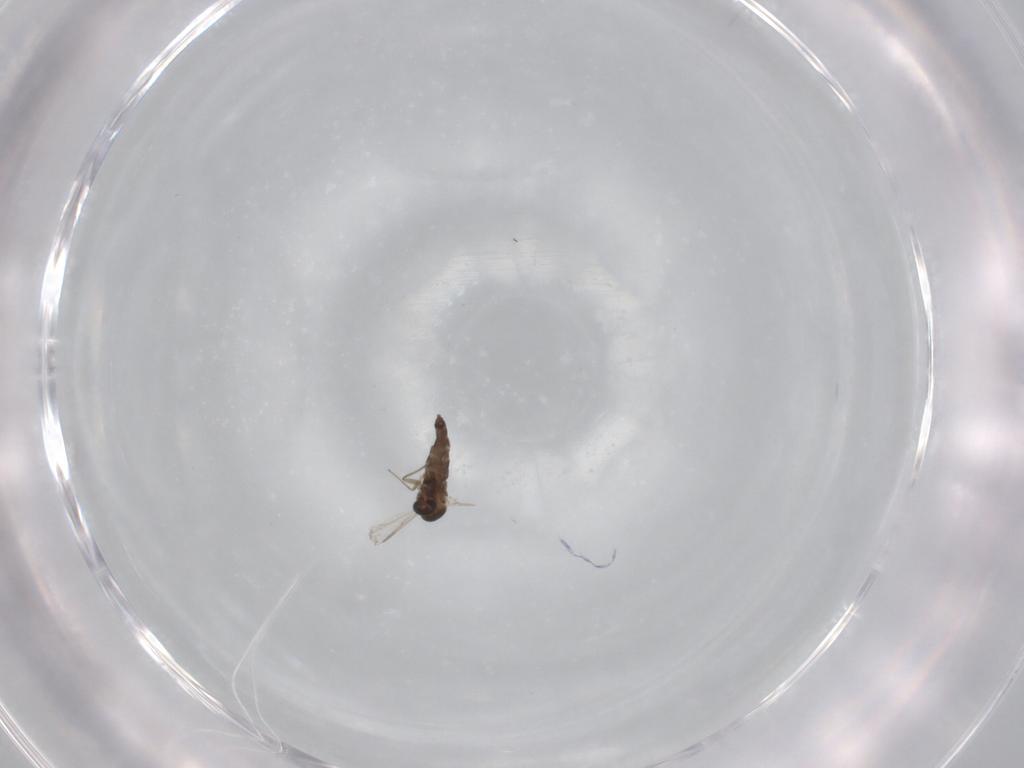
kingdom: Animalia
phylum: Arthropoda
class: Insecta
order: Diptera
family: Chironomidae
